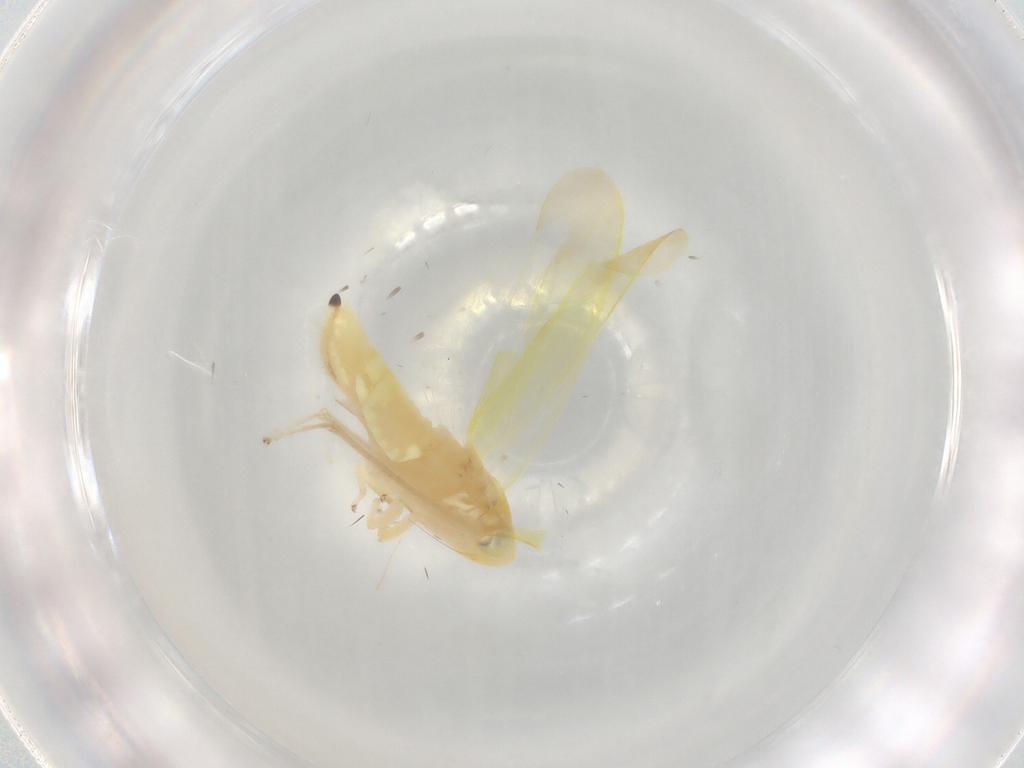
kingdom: Animalia
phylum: Arthropoda
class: Insecta
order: Hemiptera
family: Cicadellidae
